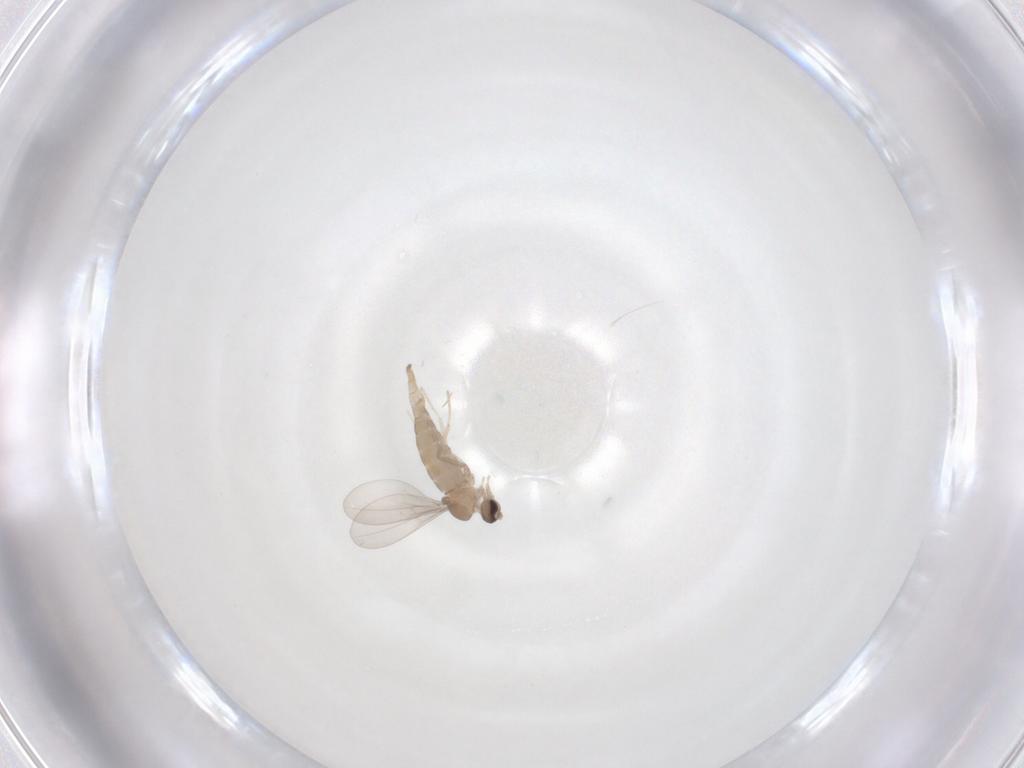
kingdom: Animalia
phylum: Arthropoda
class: Insecta
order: Diptera
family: Cecidomyiidae
